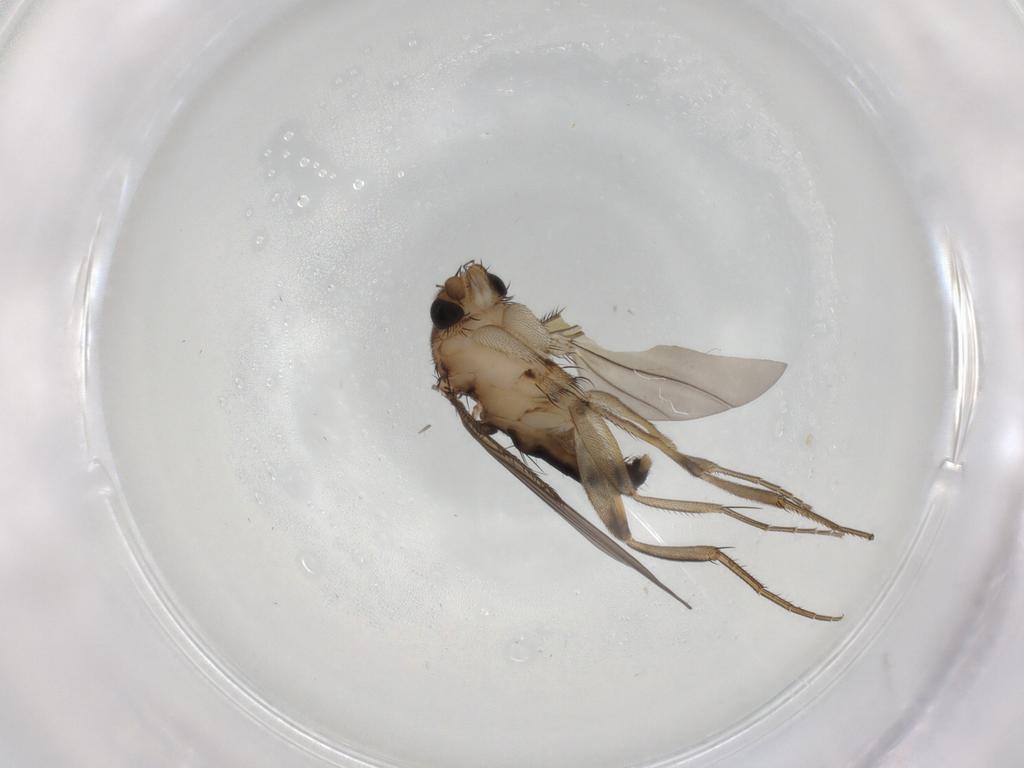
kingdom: Animalia
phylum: Arthropoda
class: Insecta
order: Diptera
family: Phoridae
